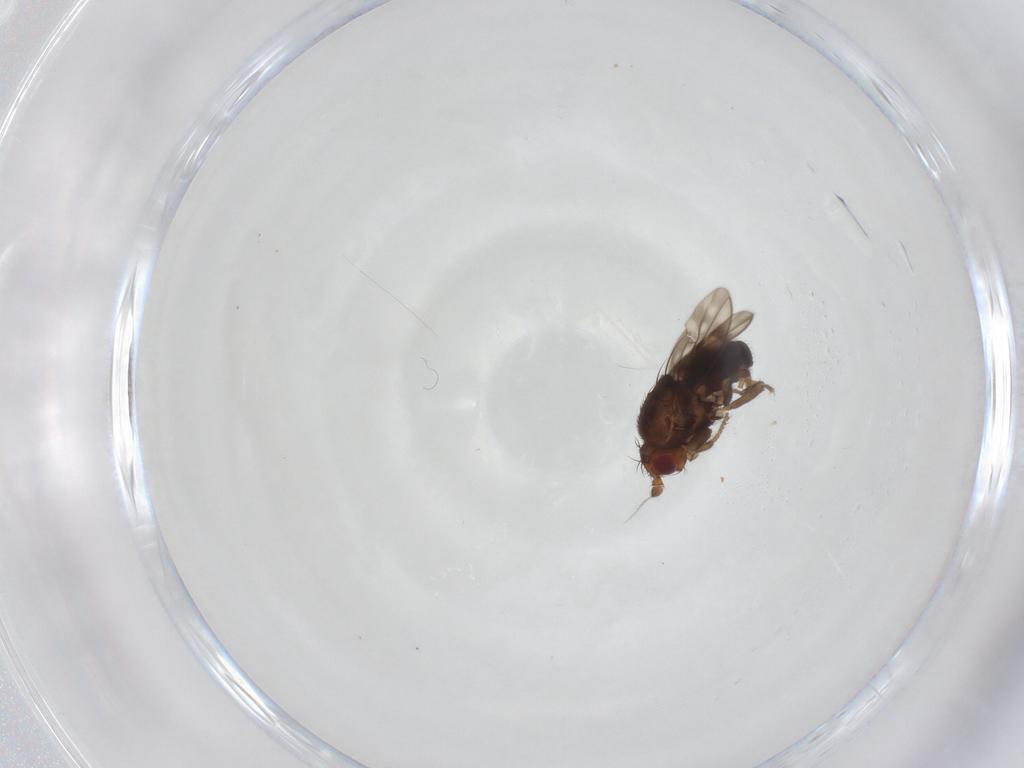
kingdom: Animalia
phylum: Arthropoda
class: Insecta
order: Diptera
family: Sphaeroceridae
